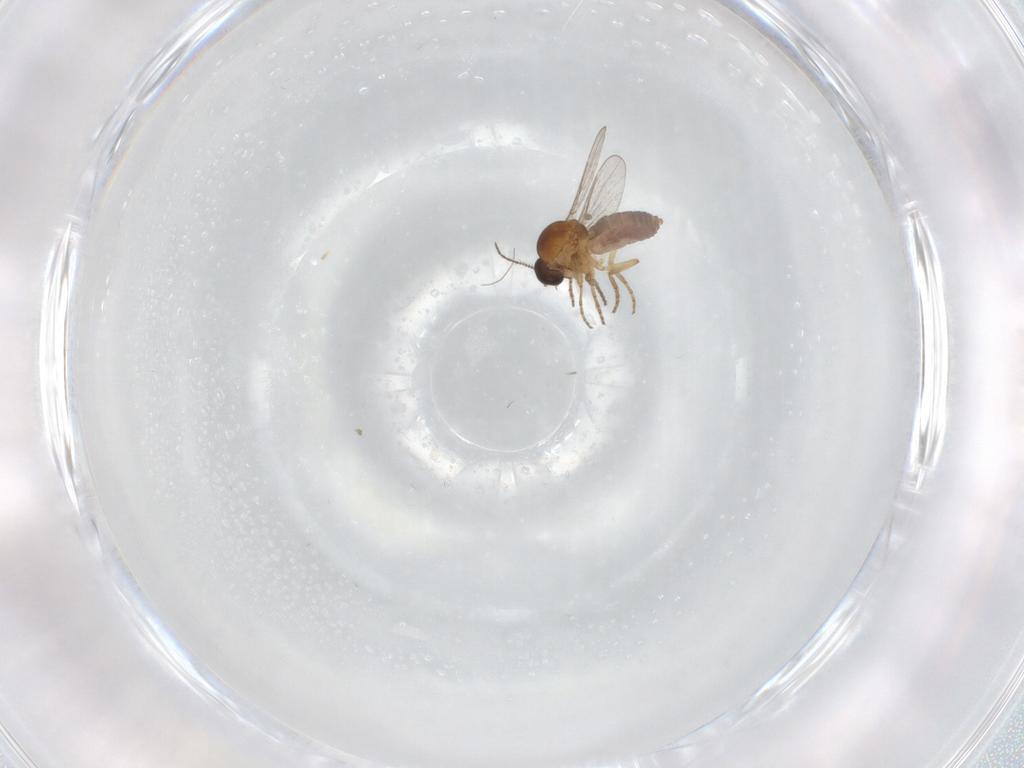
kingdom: Animalia
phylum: Arthropoda
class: Insecta
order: Diptera
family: Ceratopogonidae
